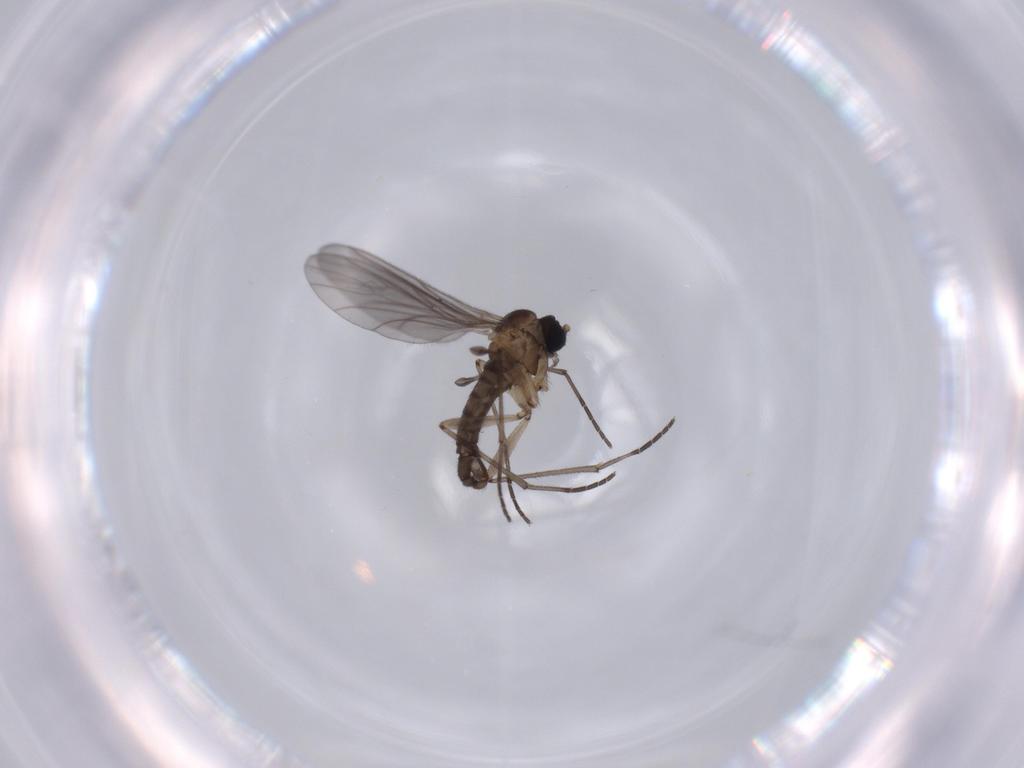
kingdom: Animalia
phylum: Arthropoda
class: Insecta
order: Diptera
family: Sciaridae
